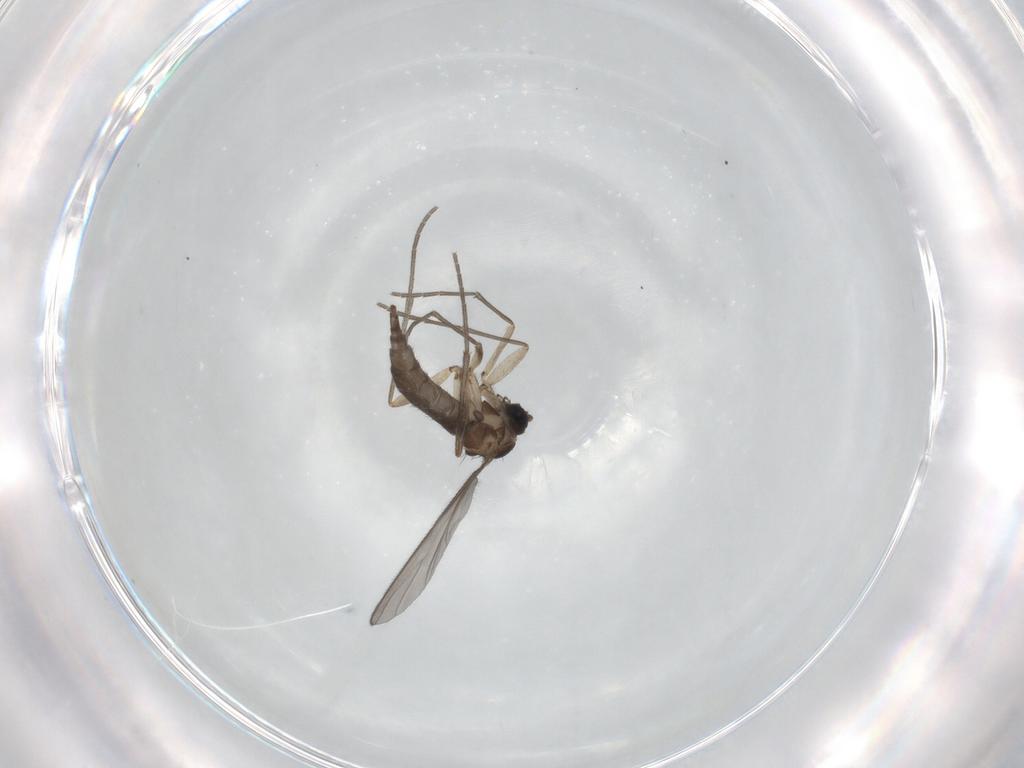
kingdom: Animalia
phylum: Arthropoda
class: Insecta
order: Diptera
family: Sciaridae
